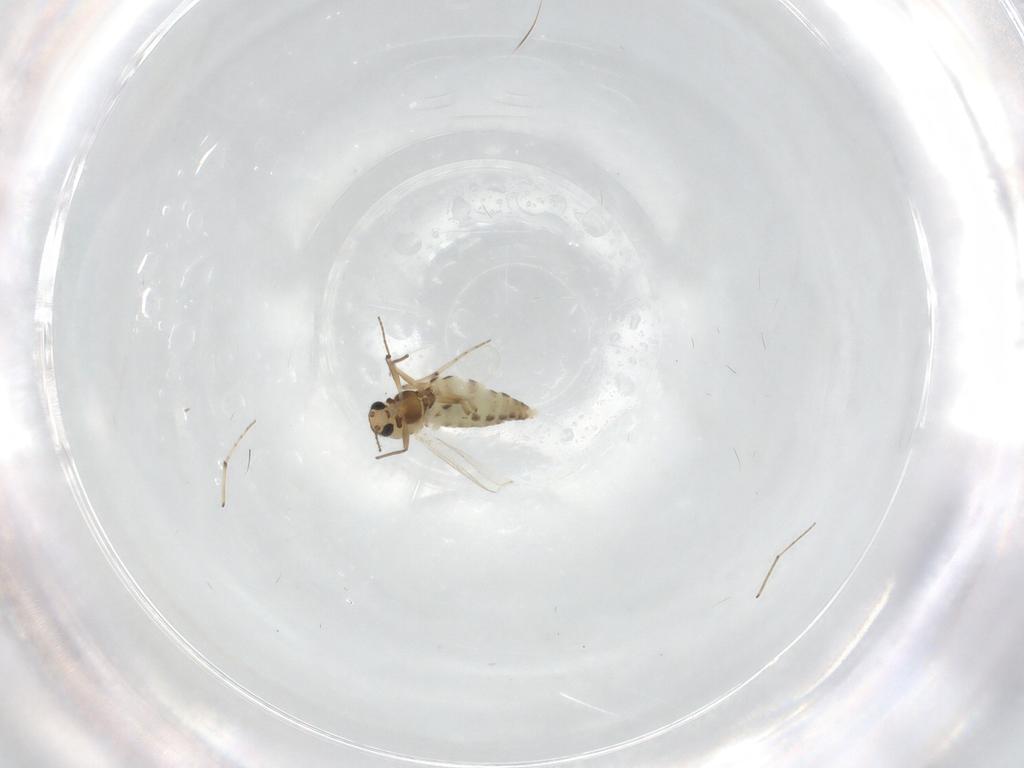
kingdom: Animalia
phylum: Arthropoda
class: Insecta
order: Diptera
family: Chironomidae
